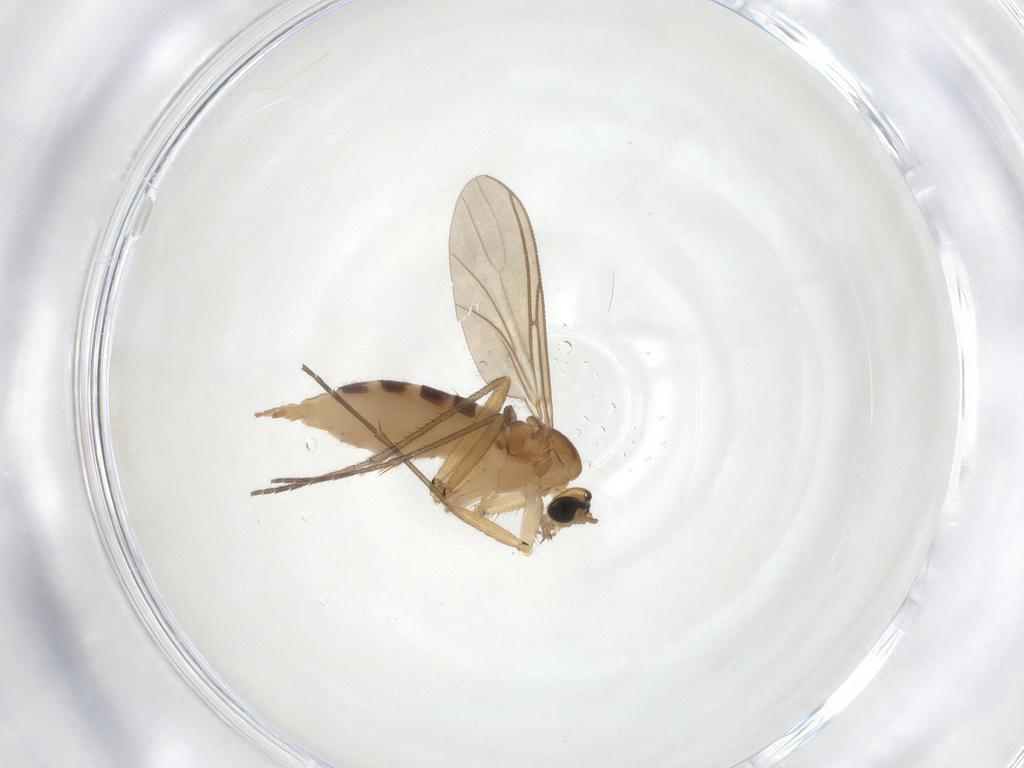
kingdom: Animalia
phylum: Arthropoda
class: Insecta
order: Diptera
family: Sciaridae
